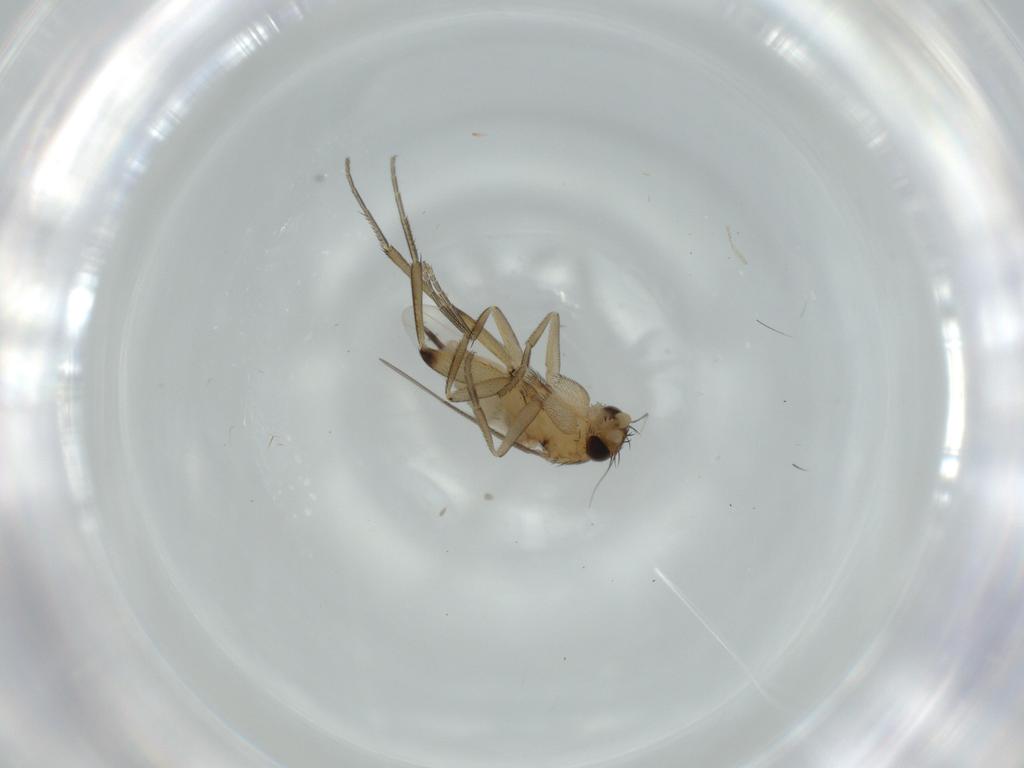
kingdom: Animalia
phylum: Arthropoda
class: Insecta
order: Diptera
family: Phoridae
